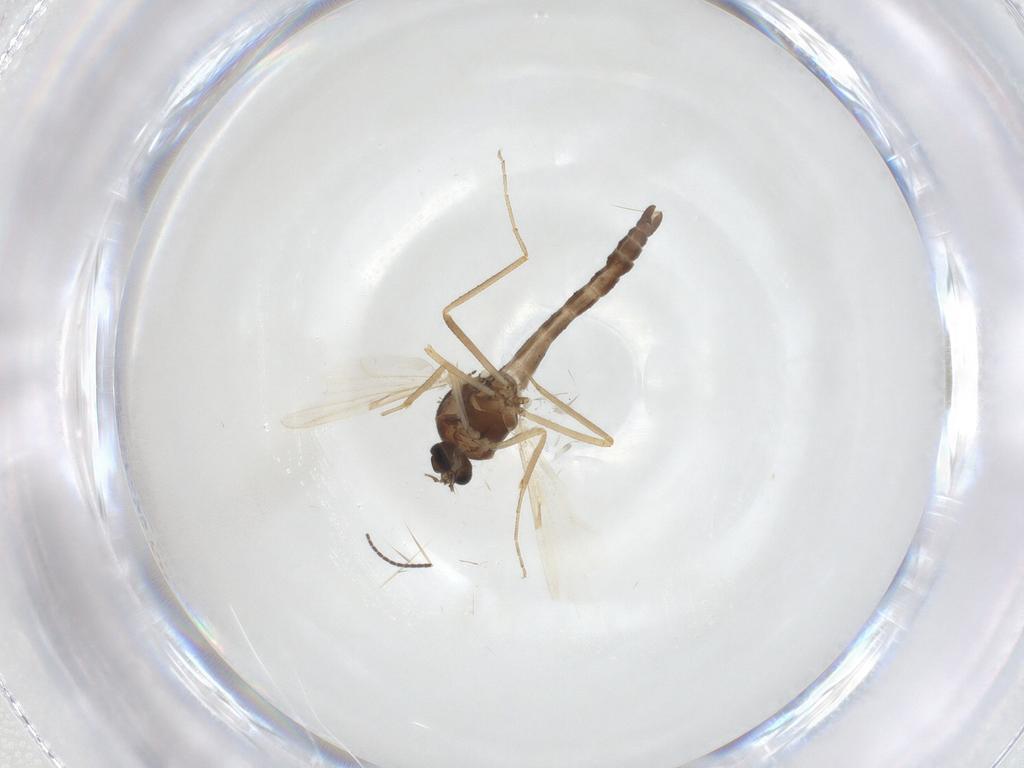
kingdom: Animalia
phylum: Arthropoda
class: Insecta
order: Diptera
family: Ceratopogonidae
